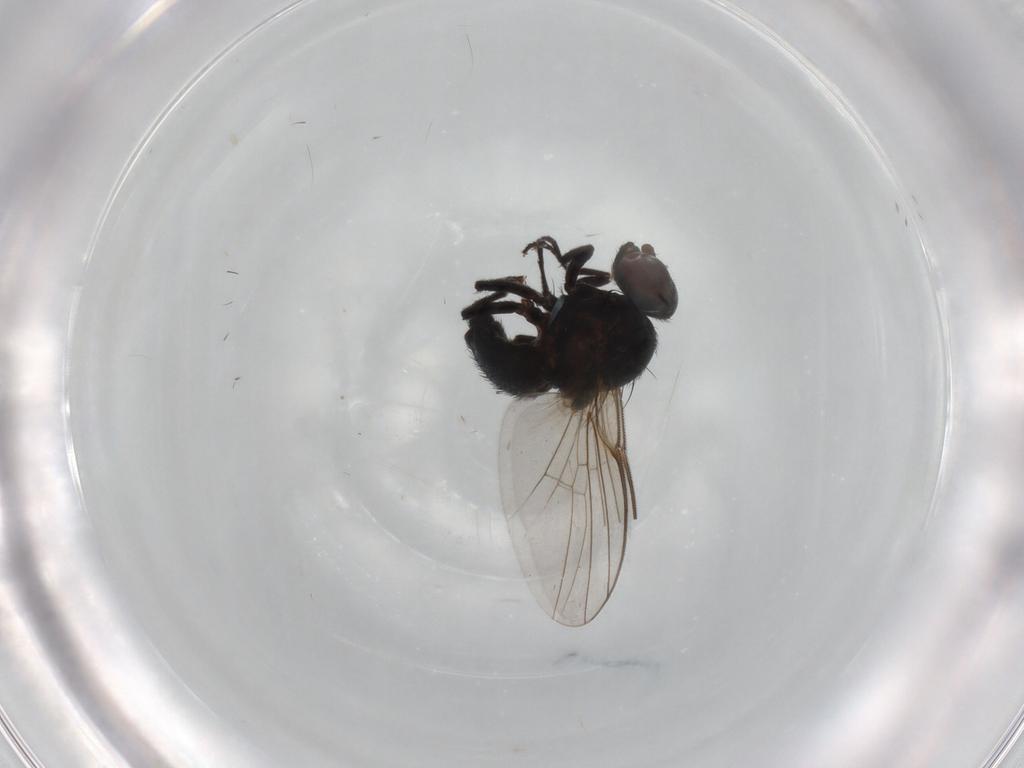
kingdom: Animalia
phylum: Arthropoda
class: Insecta
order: Diptera
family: Agromyzidae
